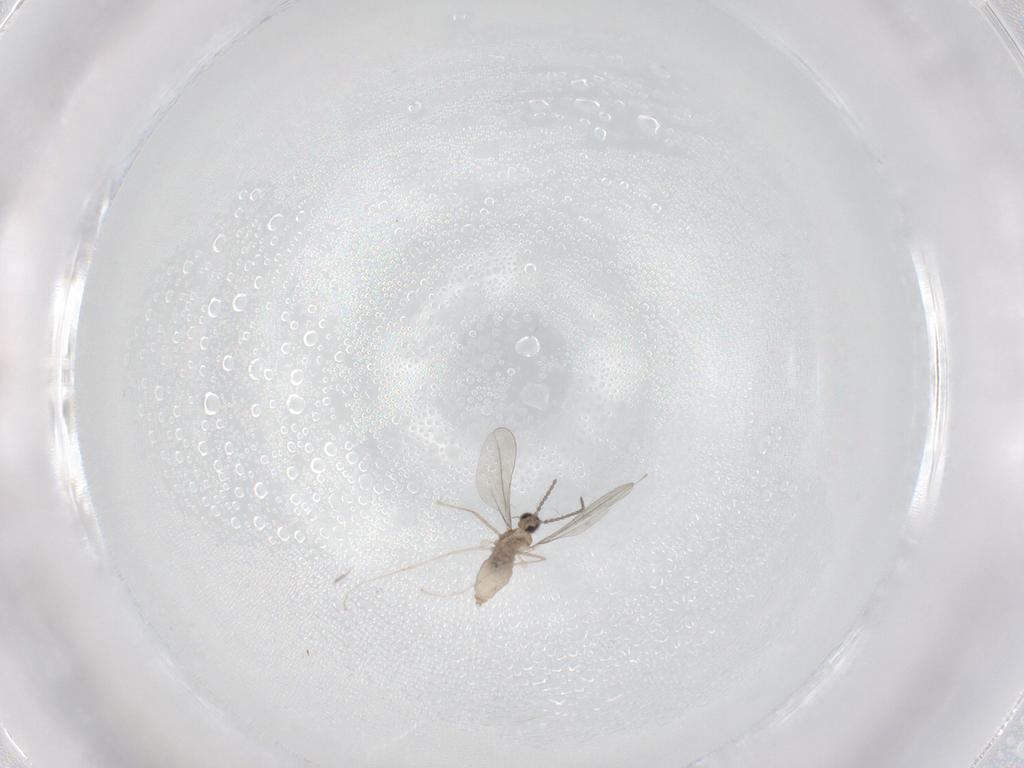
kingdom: Animalia
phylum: Arthropoda
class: Insecta
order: Diptera
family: Cecidomyiidae
